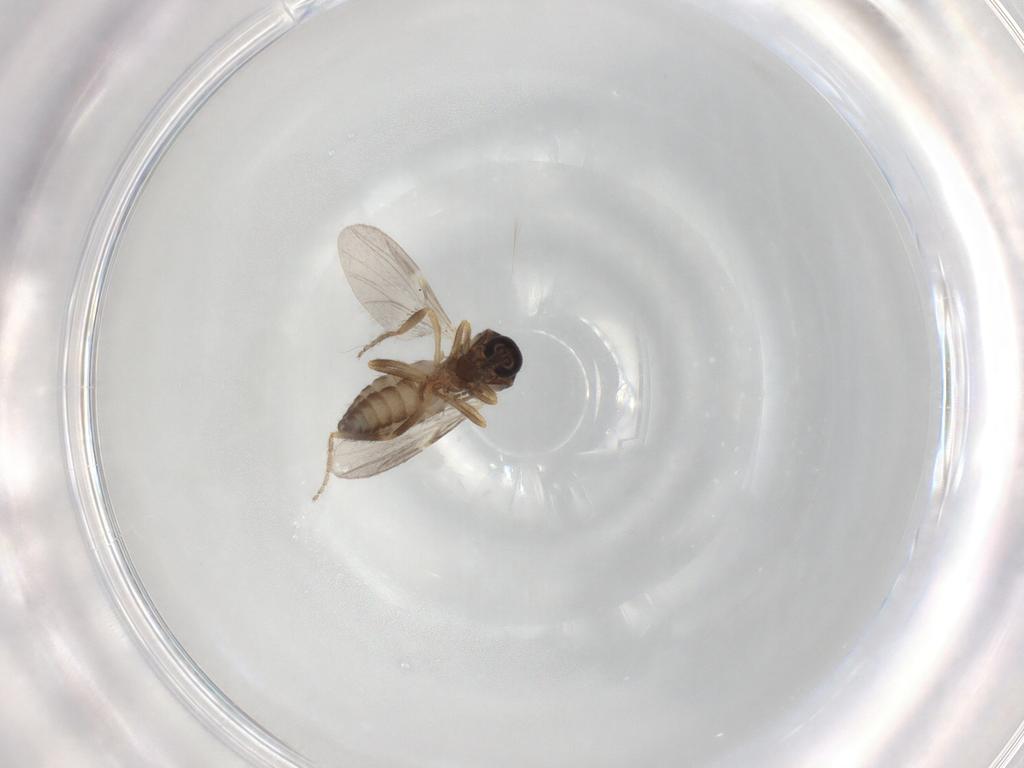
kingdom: Animalia
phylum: Arthropoda
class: Insecta
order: Diptera
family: Ceratopogonidae
